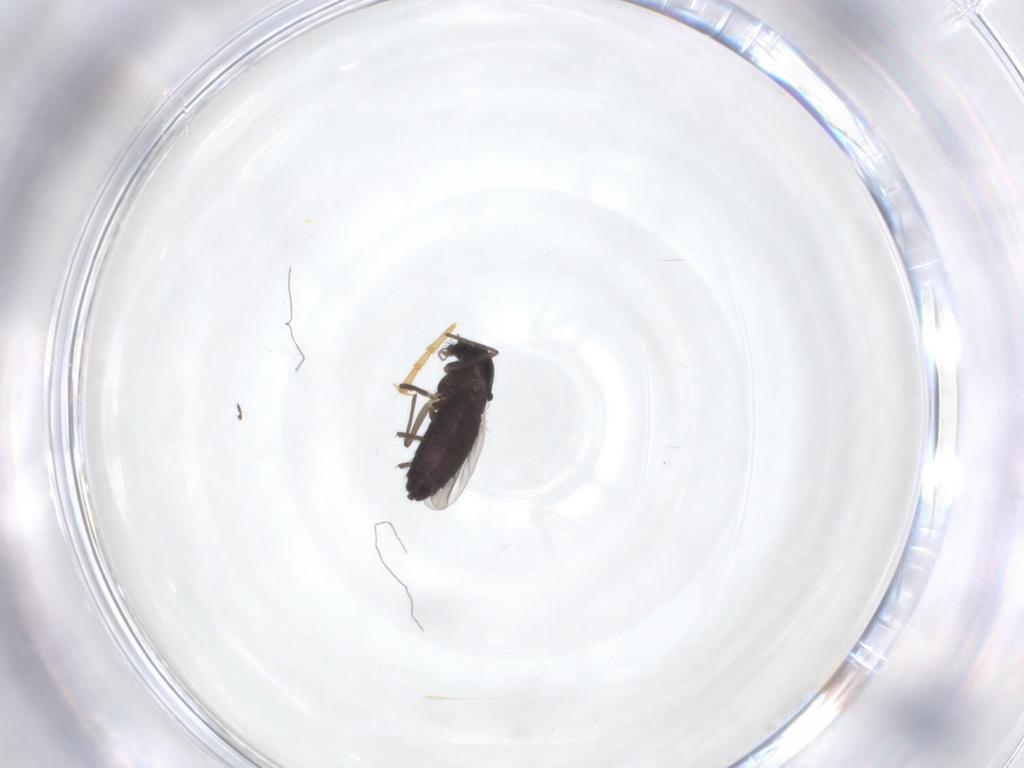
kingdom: Animalia
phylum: Arthropoda
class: Insecta
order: Diptera
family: Chironomidae
